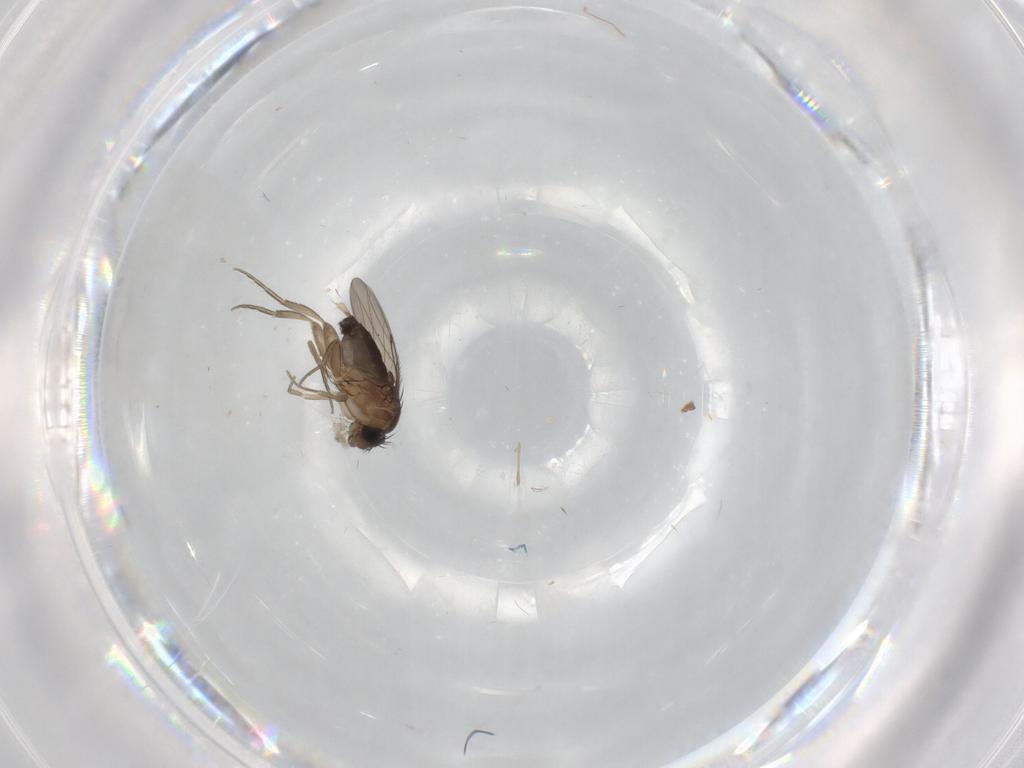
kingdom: Animalia
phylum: Arthropoda
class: Insecta
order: Diptera
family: Phoridae
